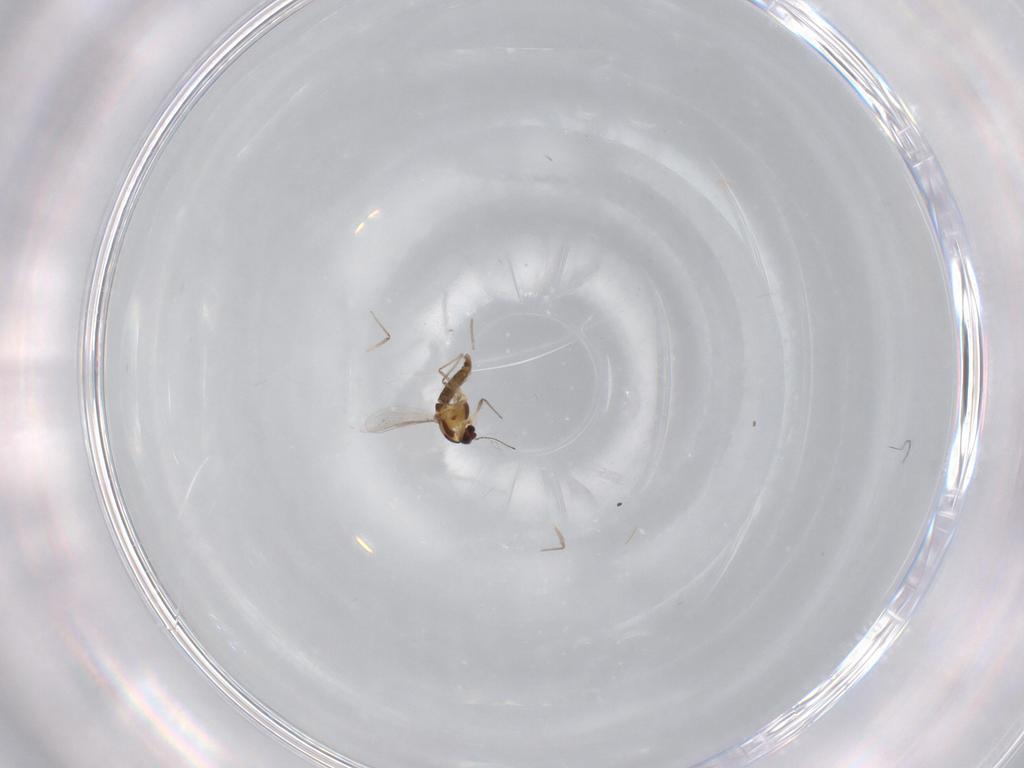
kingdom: Animalia
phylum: Arthropoda
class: Insecta
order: Diptera
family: Chironomidae
